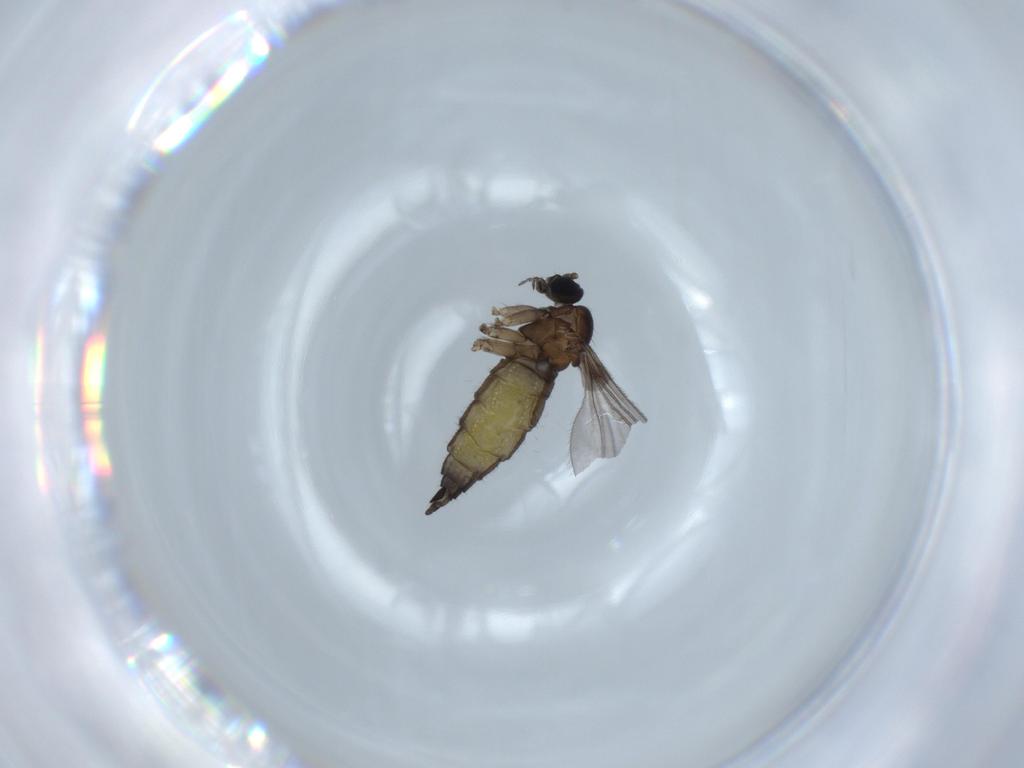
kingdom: Animalia
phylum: Arthropoda
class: Insecta
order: Diptera
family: Sciaridae
